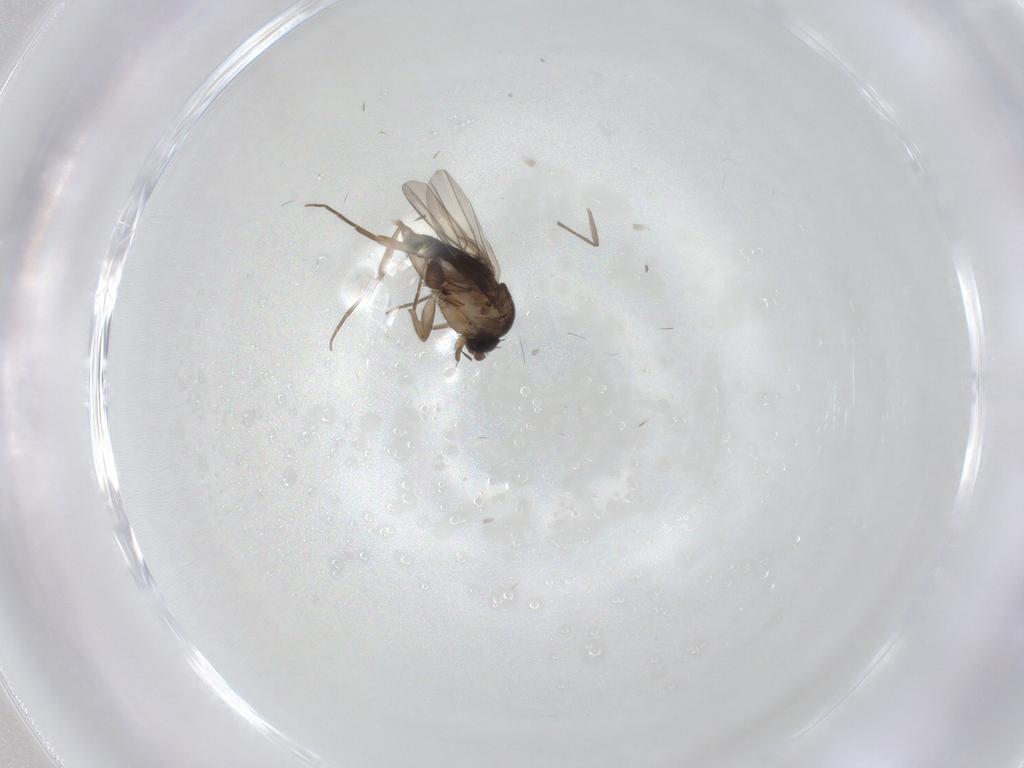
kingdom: Animalia
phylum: Arthropoda
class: Insecta
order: Diptera
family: Phoridae
